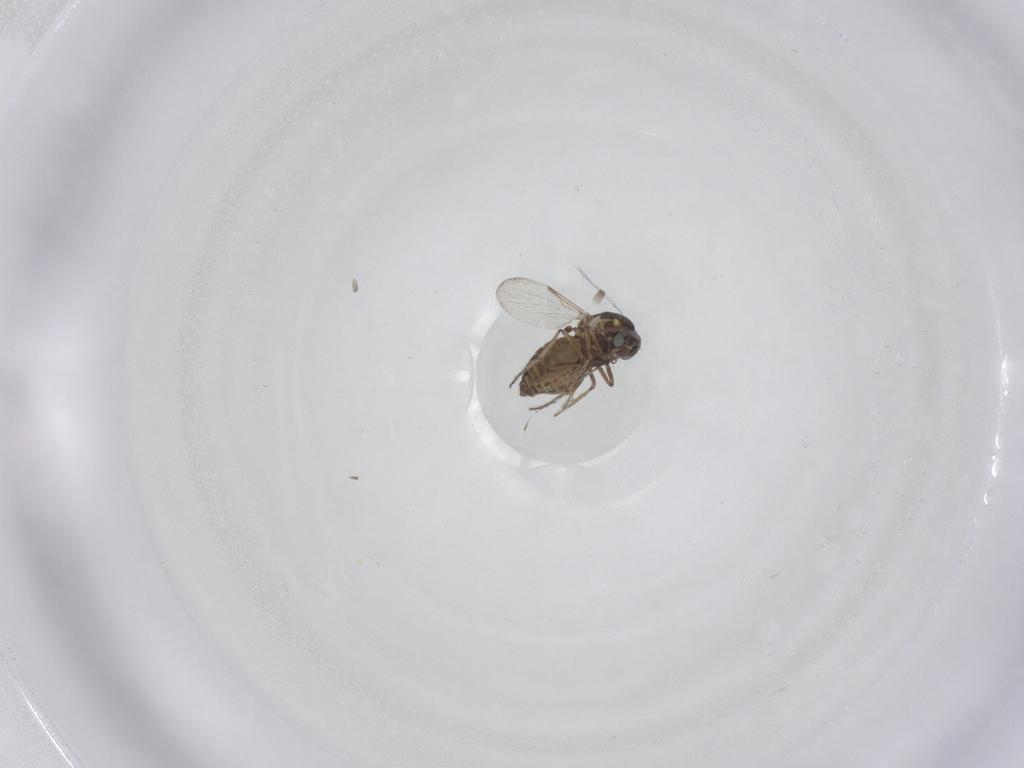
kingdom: Animalia
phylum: Arthropoda
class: Insecta
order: Diptera
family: Ceratopogonidae
